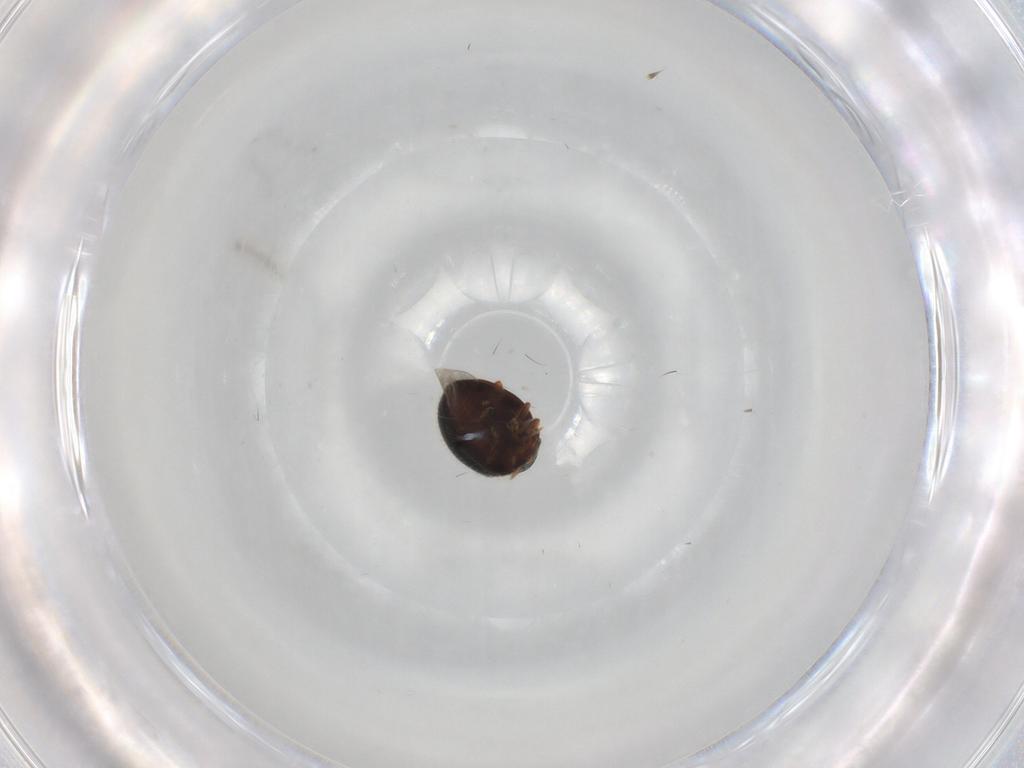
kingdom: Animalia
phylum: Arthropoda
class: Insecta
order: Coleoptera
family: Coccinellidae
